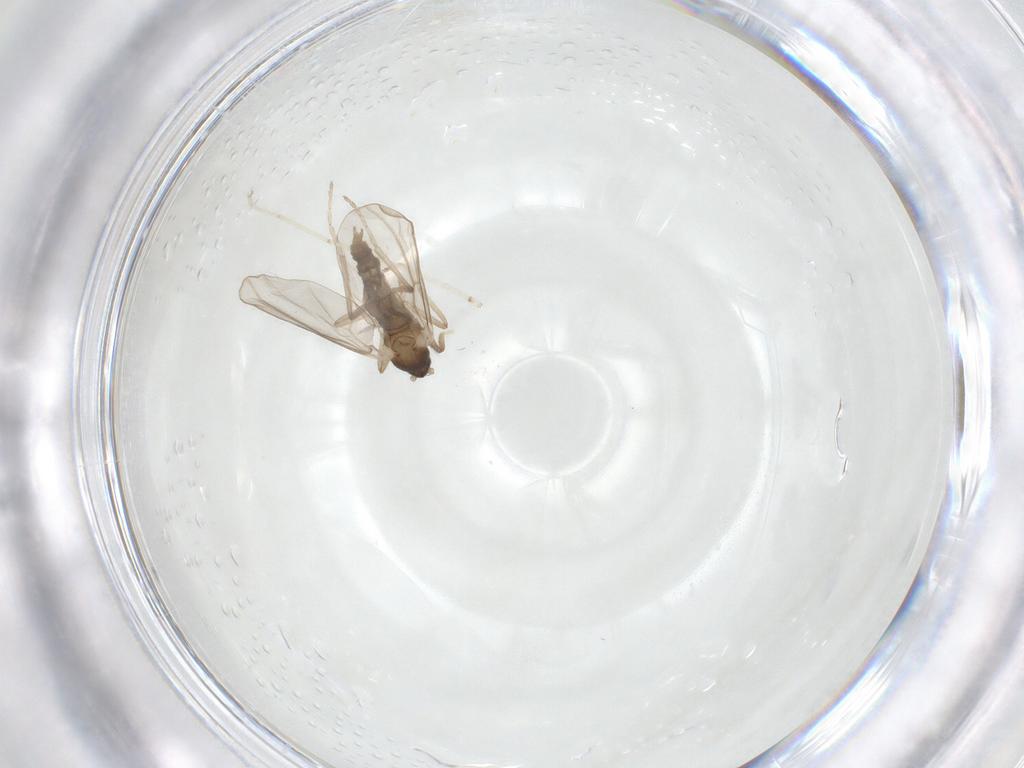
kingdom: Animalia
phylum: Arthropoda
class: Insecta
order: Diptera
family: Cecidomyiidae
